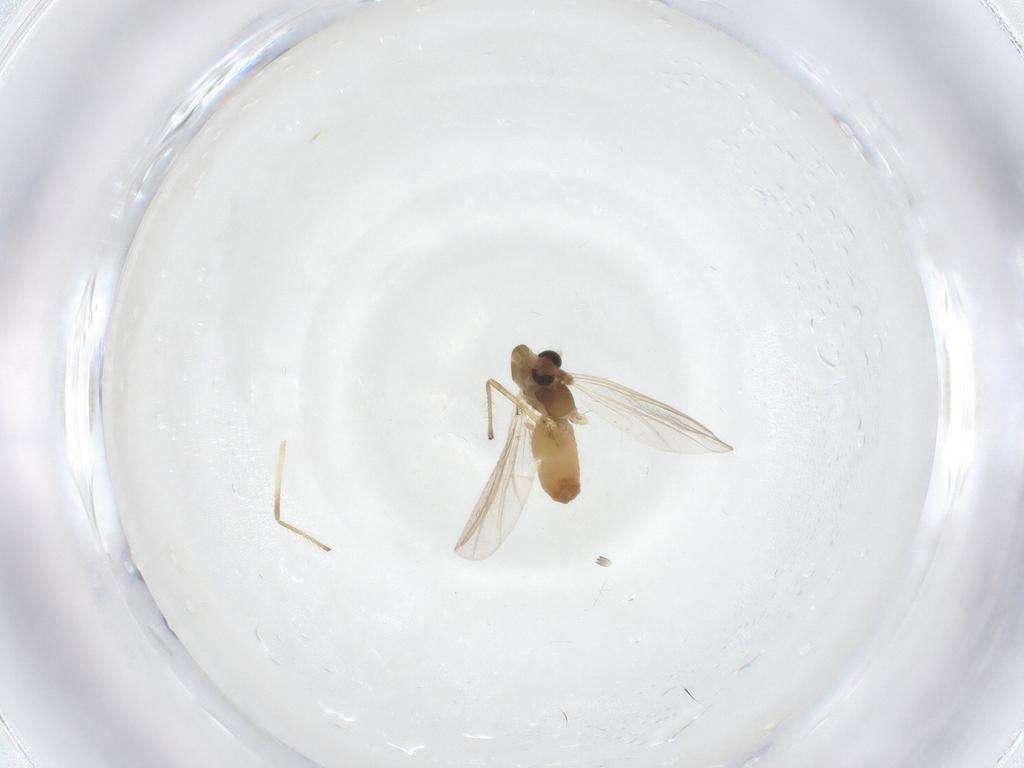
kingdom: Animalia
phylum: Arthropoda
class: Insecta
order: Diptera
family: Chironomidae
